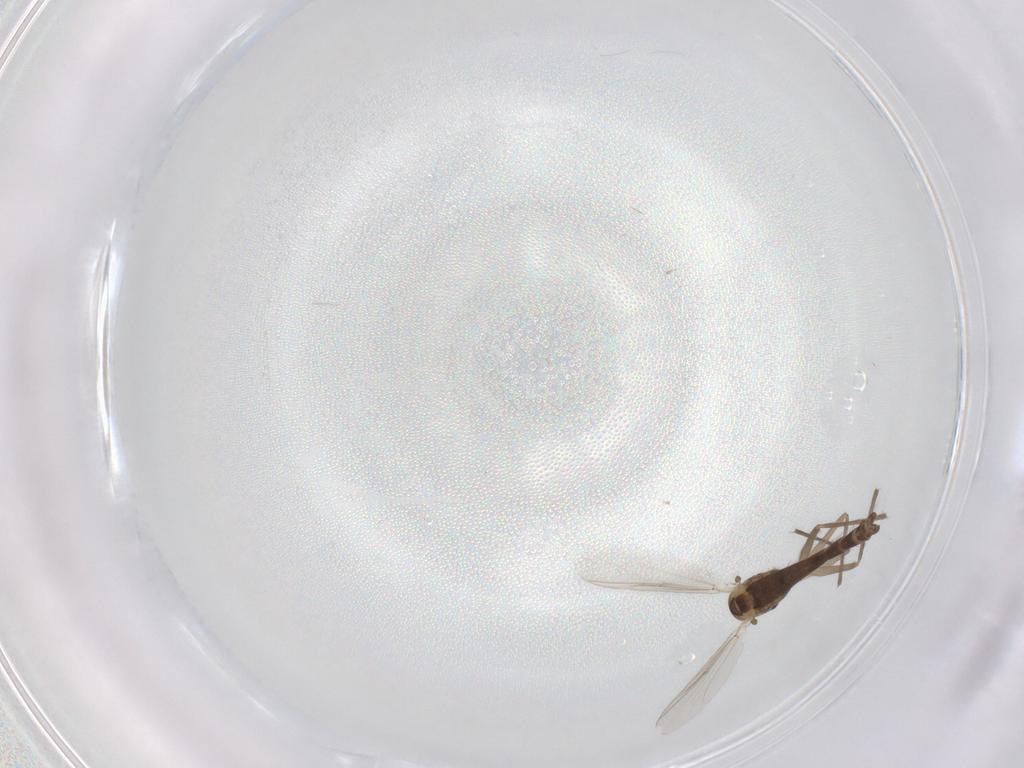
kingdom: Animalia
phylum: Arthropoda
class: Insecta
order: Diptera
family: Chironomidae
